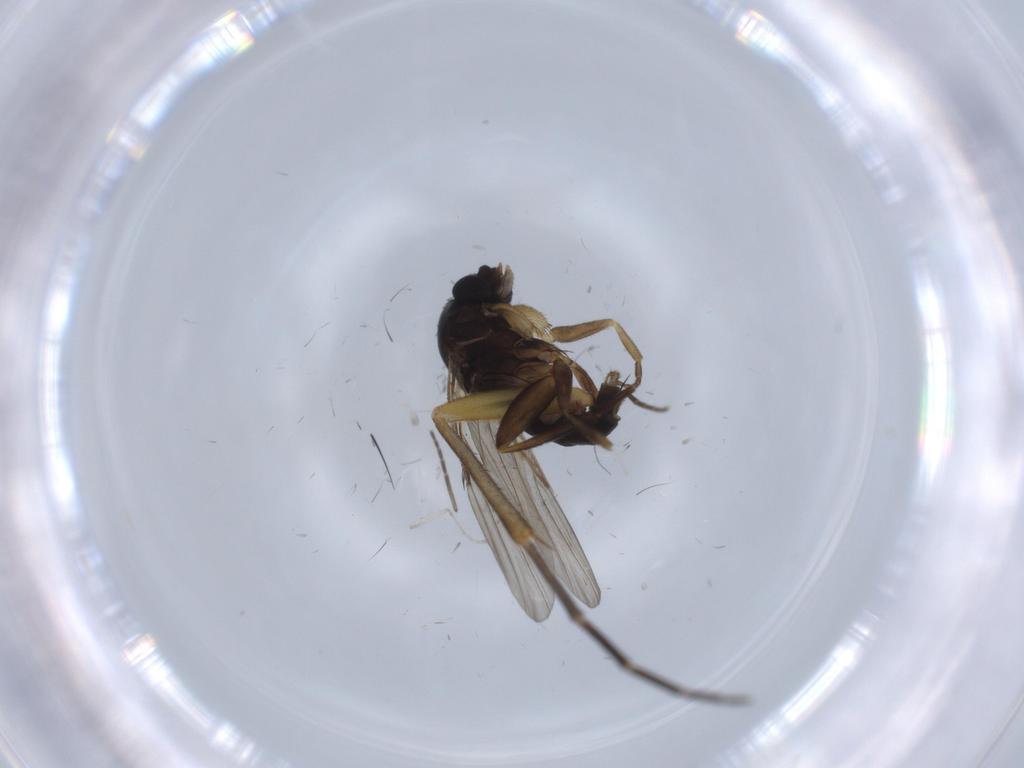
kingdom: Animalia
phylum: Arthropoda
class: Insecta
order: Diptera
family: Phoridae
